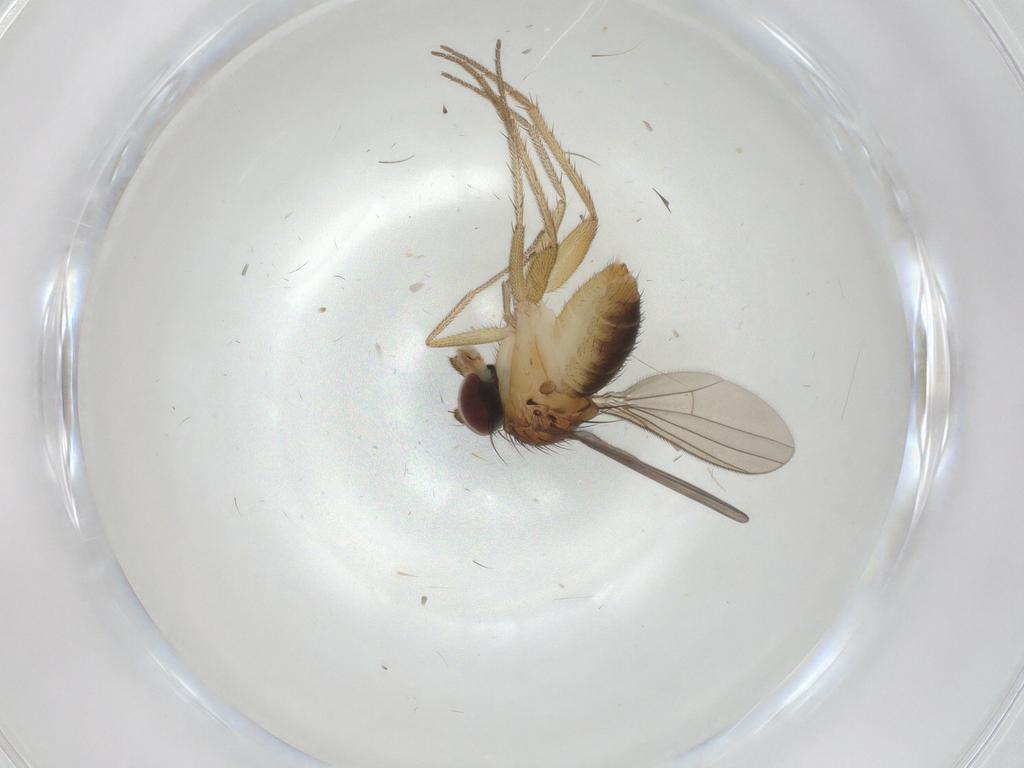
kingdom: Animalia
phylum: Arthropoda
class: Insecta
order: Diptera
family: Dolichopodidae
